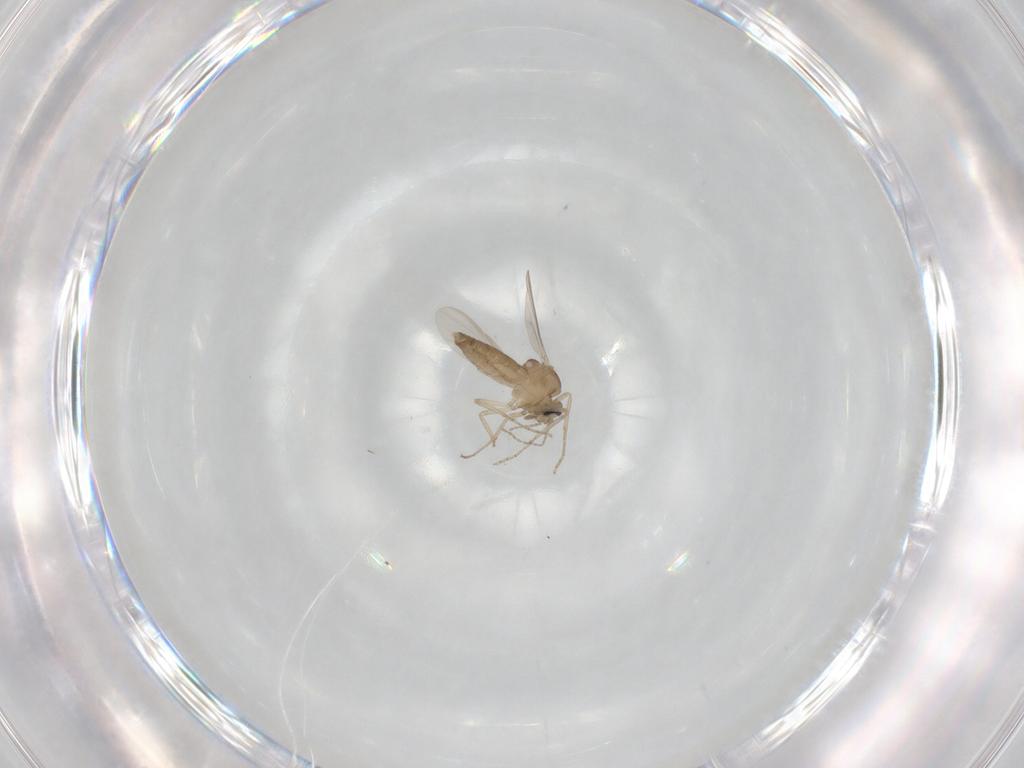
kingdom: Animalia
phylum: Arthropoda
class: Insecta
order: Diptera
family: Ceratopogonidae
